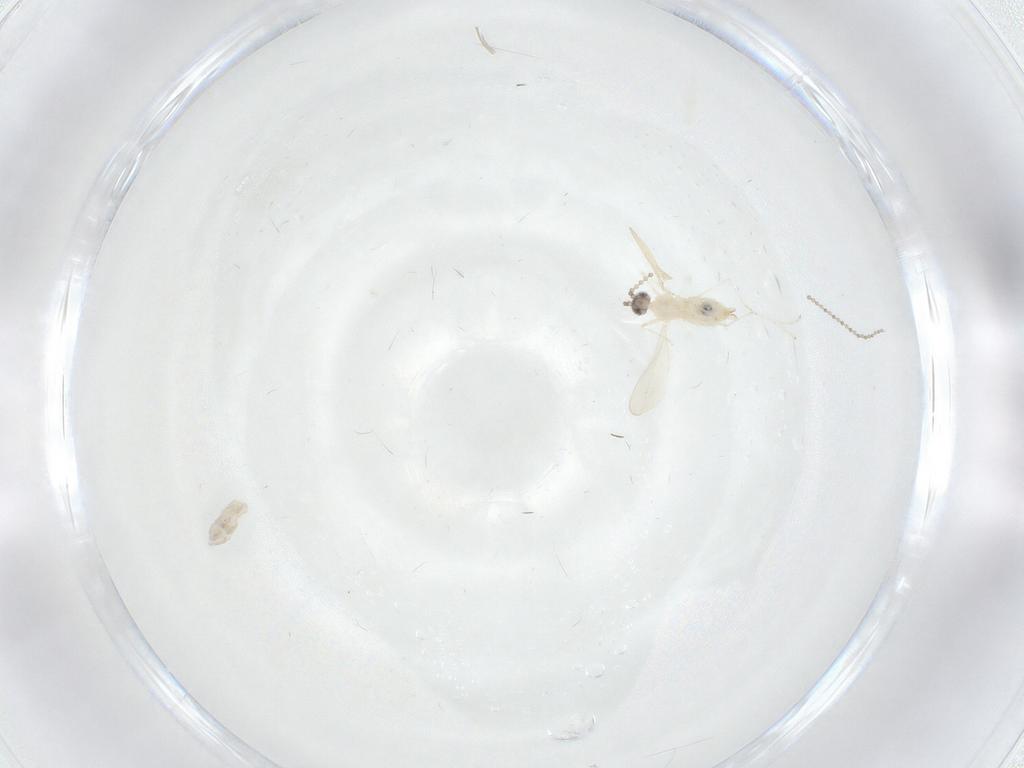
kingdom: Animalia
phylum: Arthropoda
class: Insecta
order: Diptera
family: Cecidomyiidae
